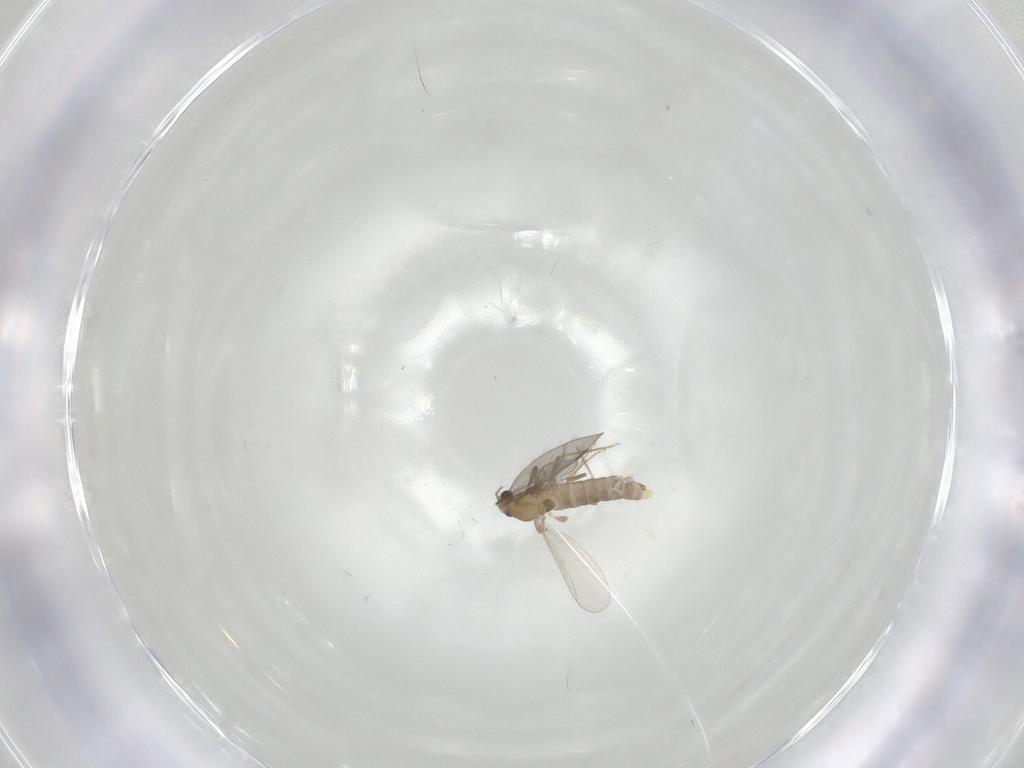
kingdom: Animalia
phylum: Arthropoda
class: Insecta
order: Diptera
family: Chironomidae
